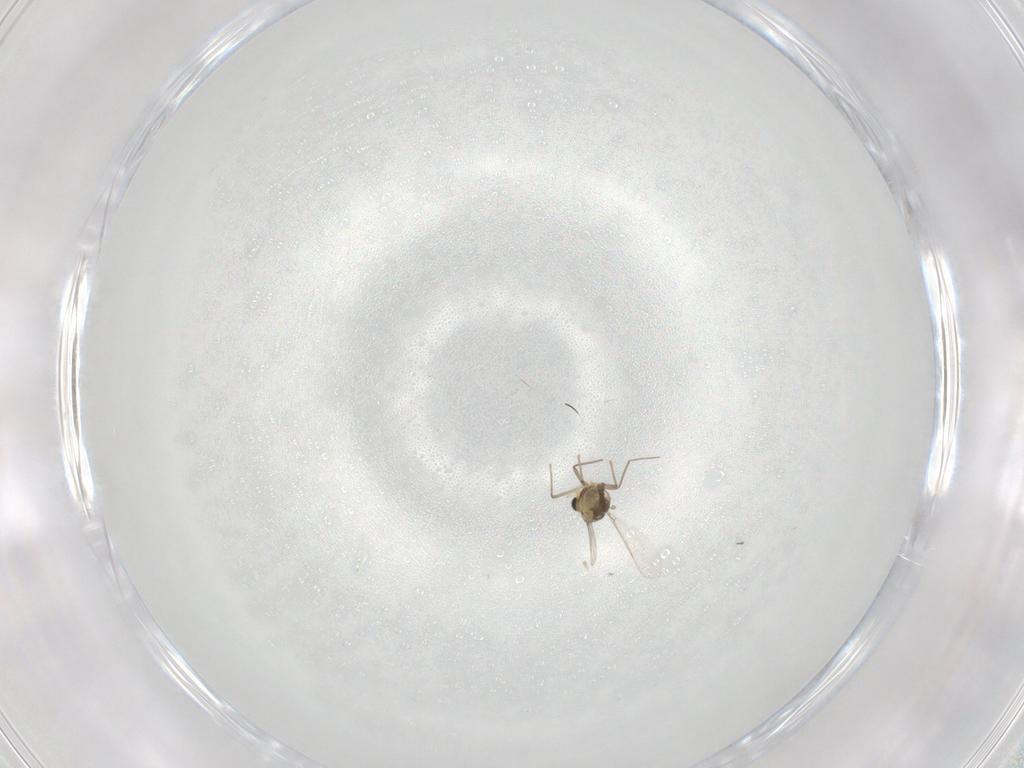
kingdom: Animalia
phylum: Arthropoda
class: Insecta
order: Diptera
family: Chironomidae
